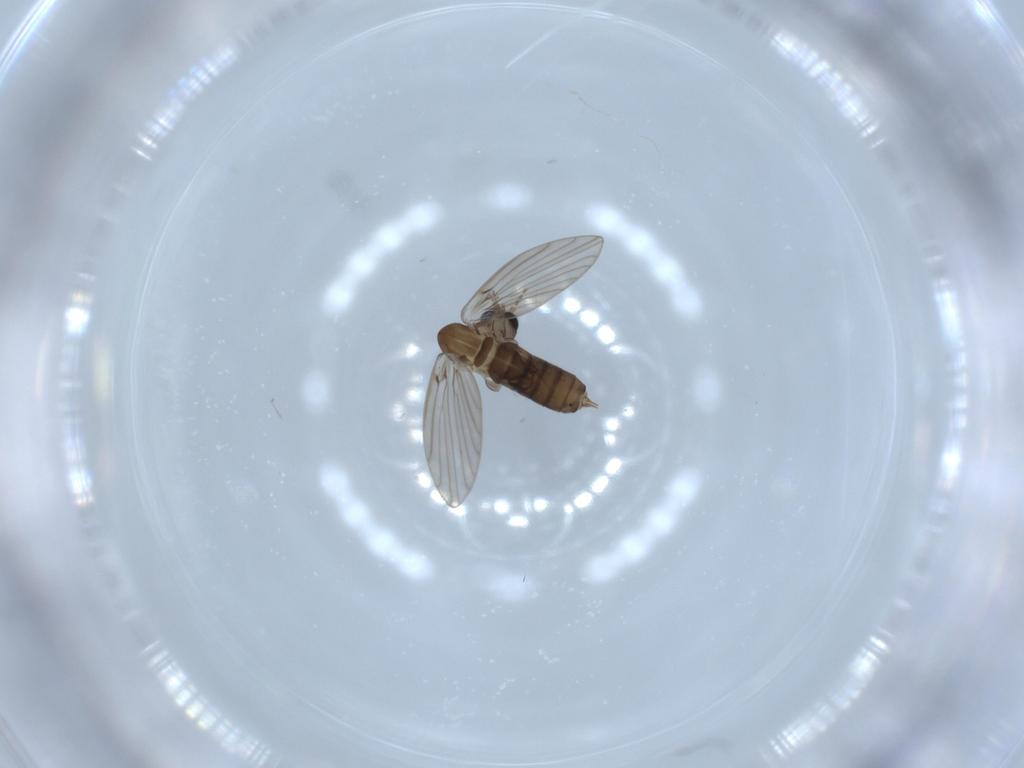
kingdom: Animalia
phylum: Arthropoda
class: Insecta
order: Diptera
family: Psychodidae
